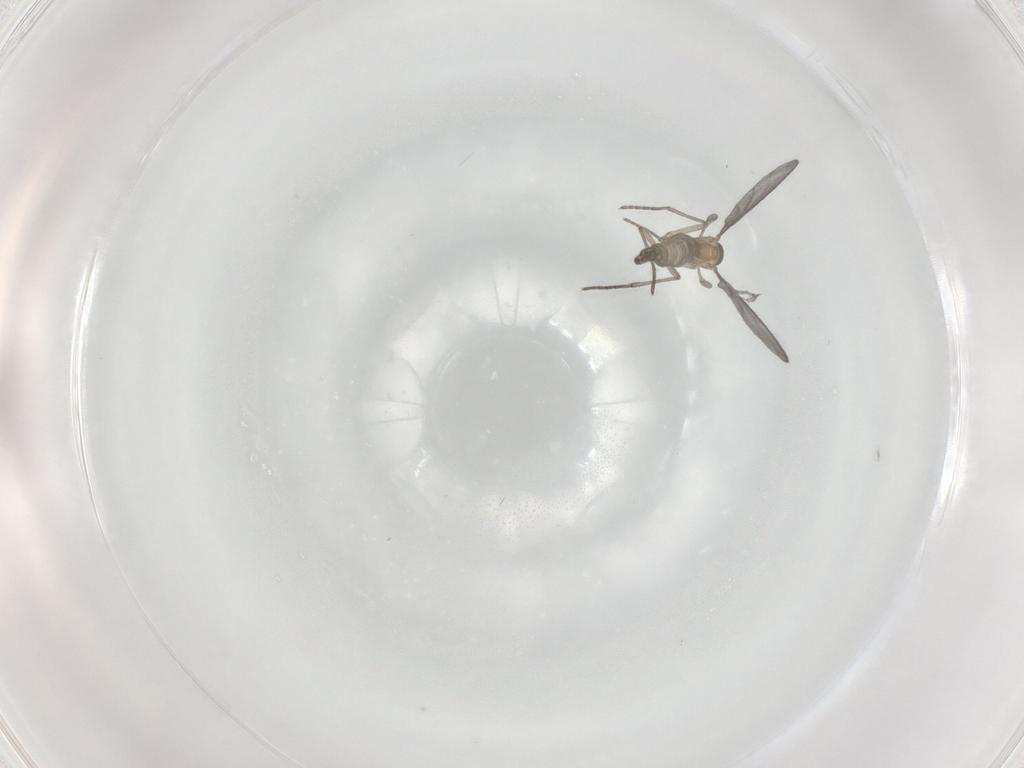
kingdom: Animalia
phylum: Arthropoda
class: Insecta
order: Diptera
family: Sciaridae
